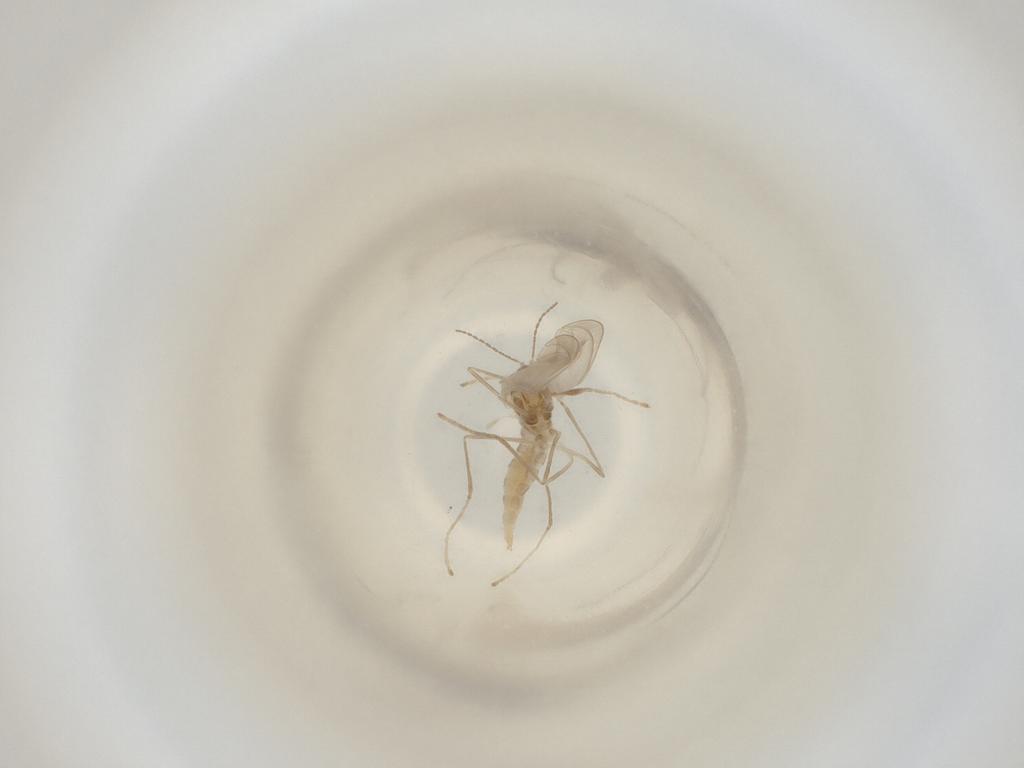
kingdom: Animalia
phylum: Arthropoda
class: Insecta
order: Diptera
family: Cecidomyiidae
